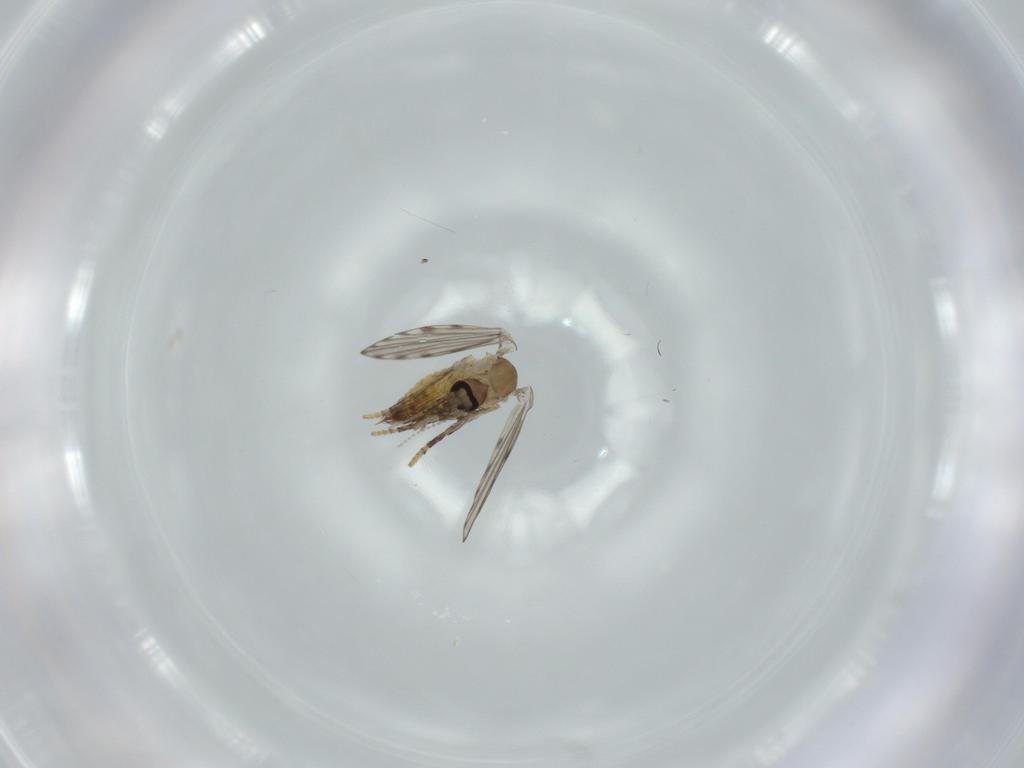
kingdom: Animalia
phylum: Arthropoda
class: Insecta
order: Diptera
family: Psychodidae
